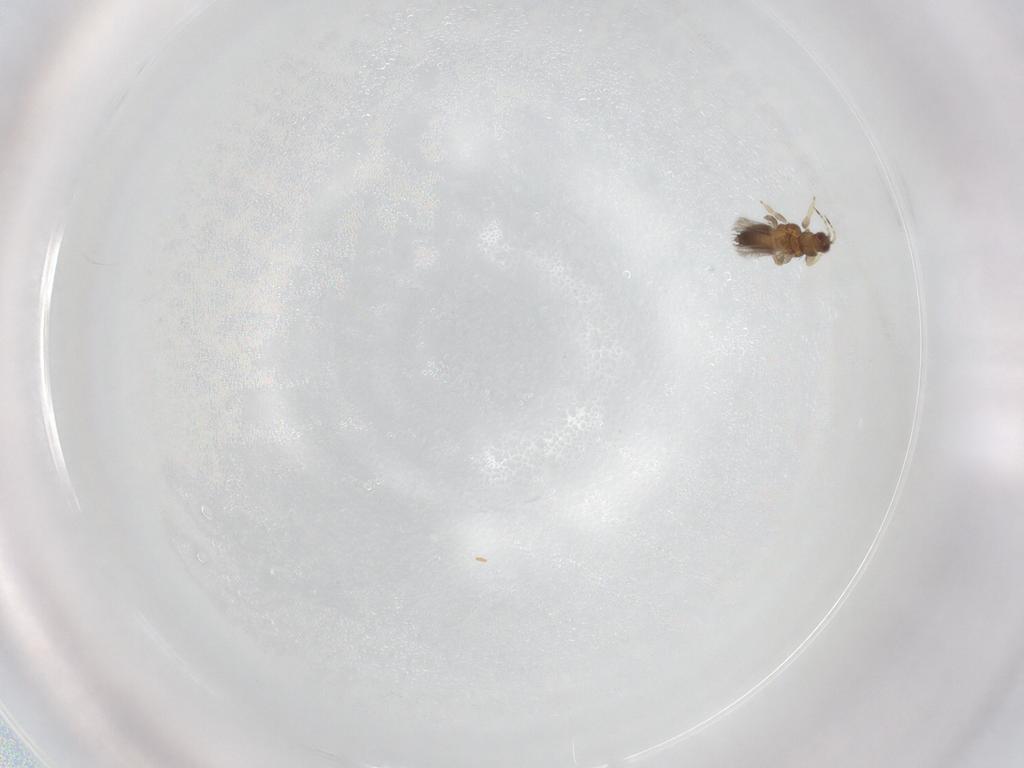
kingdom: Animalia
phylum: Arthropoda
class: Insecta
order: Thysanoptera
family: Thripidae
